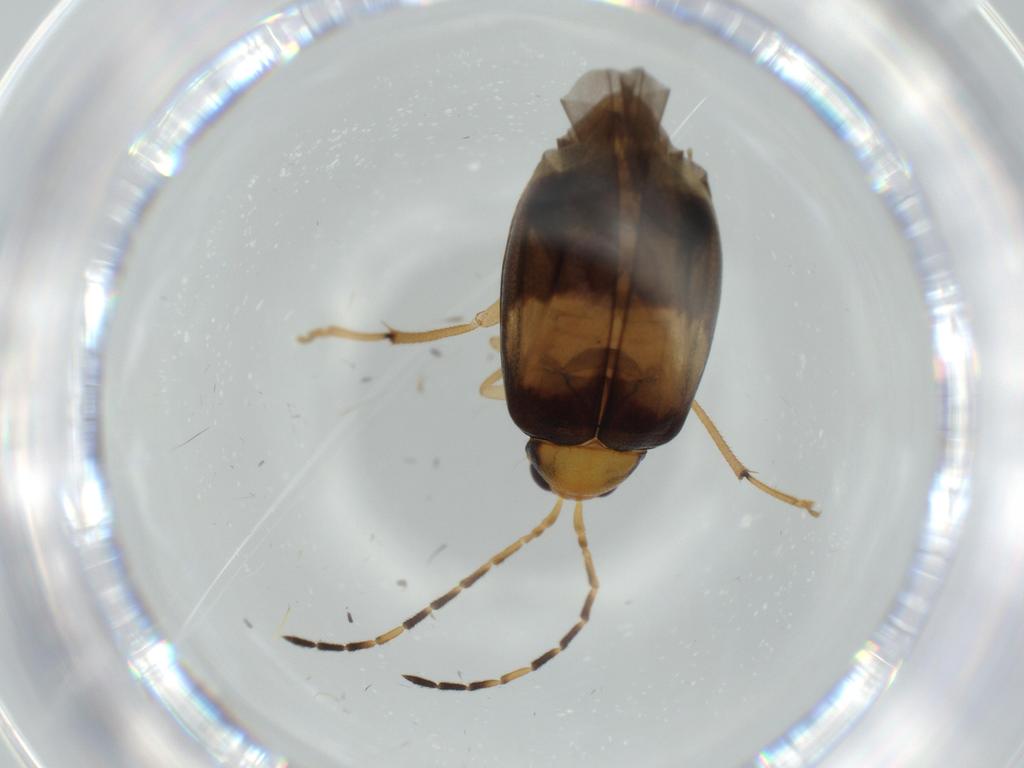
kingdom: Animalia
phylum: Arthropoda
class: Insecta
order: Coleoptera
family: Chrysomelidae
